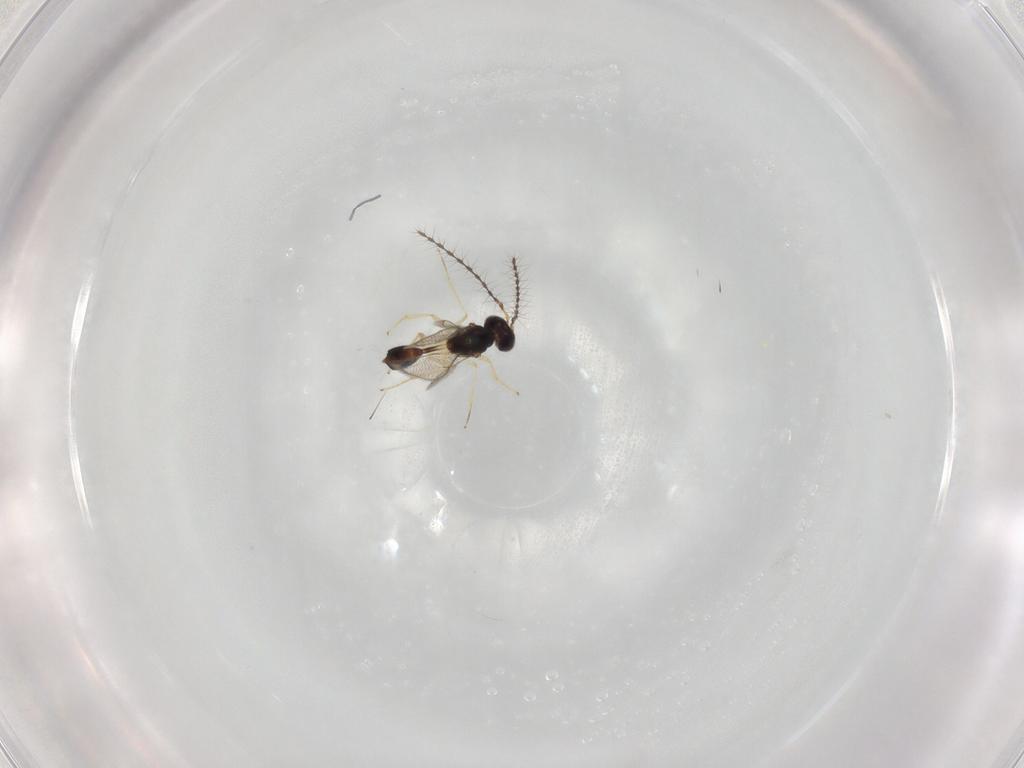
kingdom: Animalia
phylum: Arthropoda
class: Insecta
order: Hymenoptera
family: Diparidae
